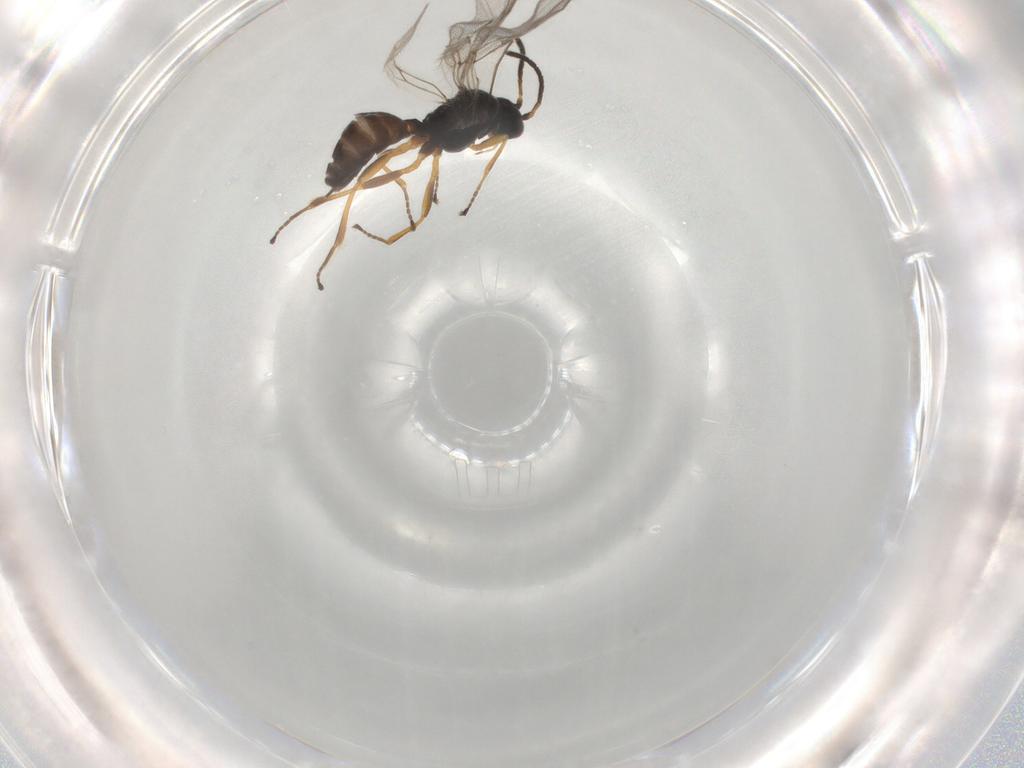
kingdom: Animalia
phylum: Arthropoda
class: Insecta
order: Hymenoptera
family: Braconidae
